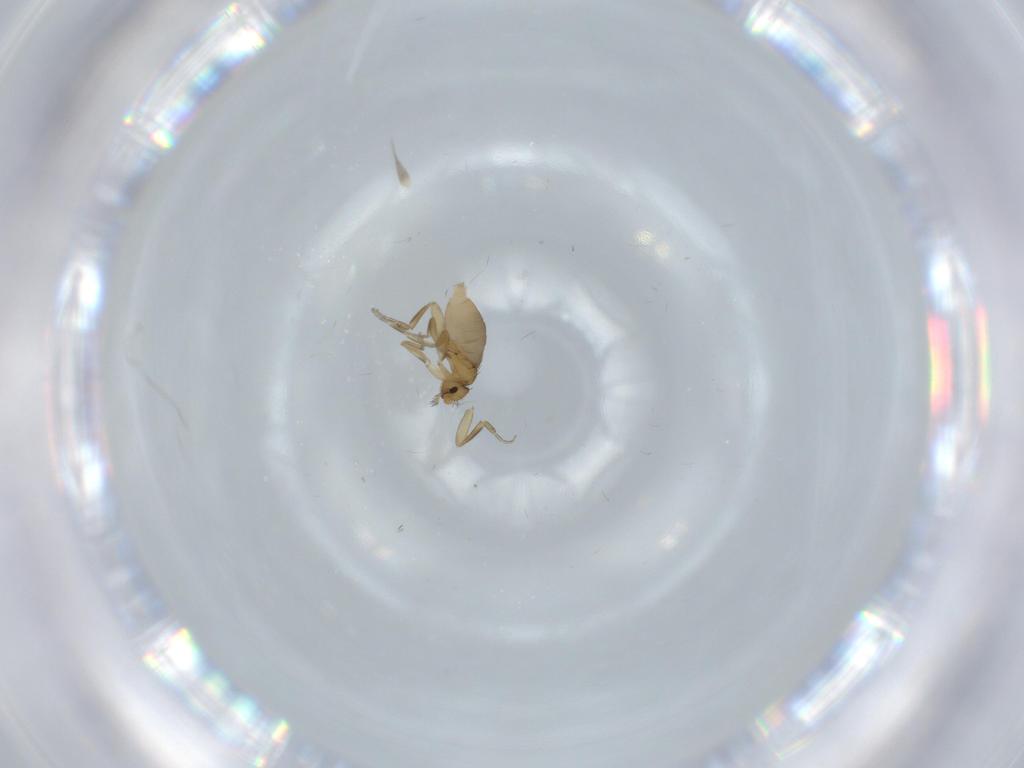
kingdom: Animalia
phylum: Arthropoda
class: Insecta
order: Diptera
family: Phoridae
